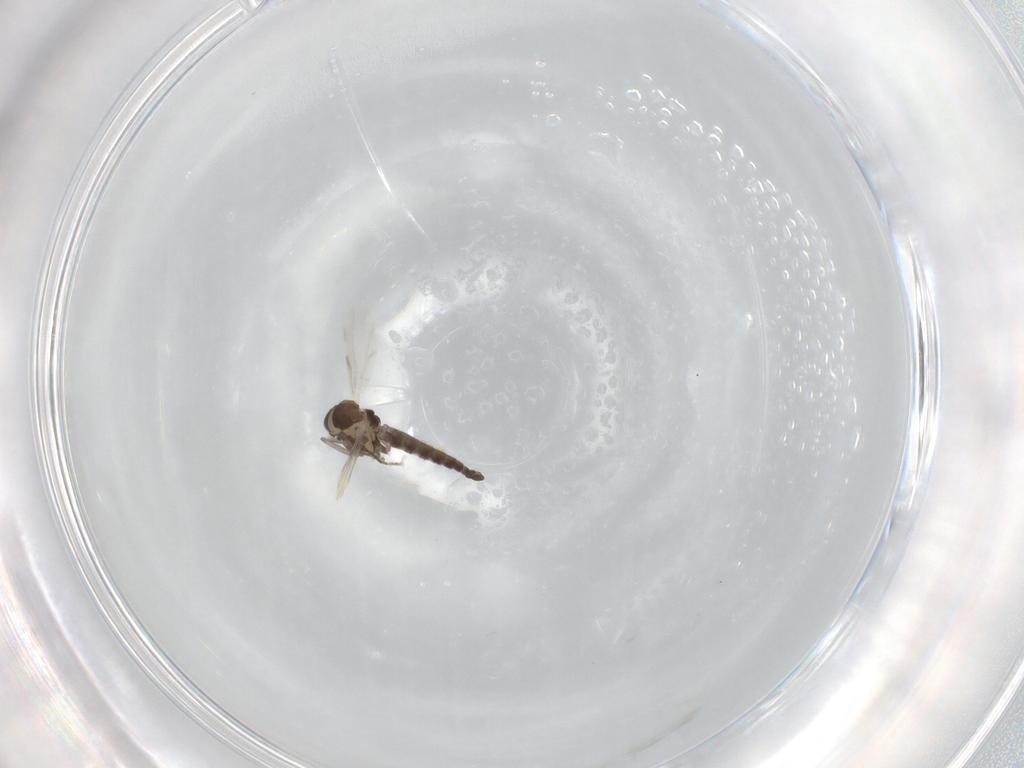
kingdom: Animalia
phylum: Arthropoda
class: Insecta
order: Diptera
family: Ceratopogonidae
